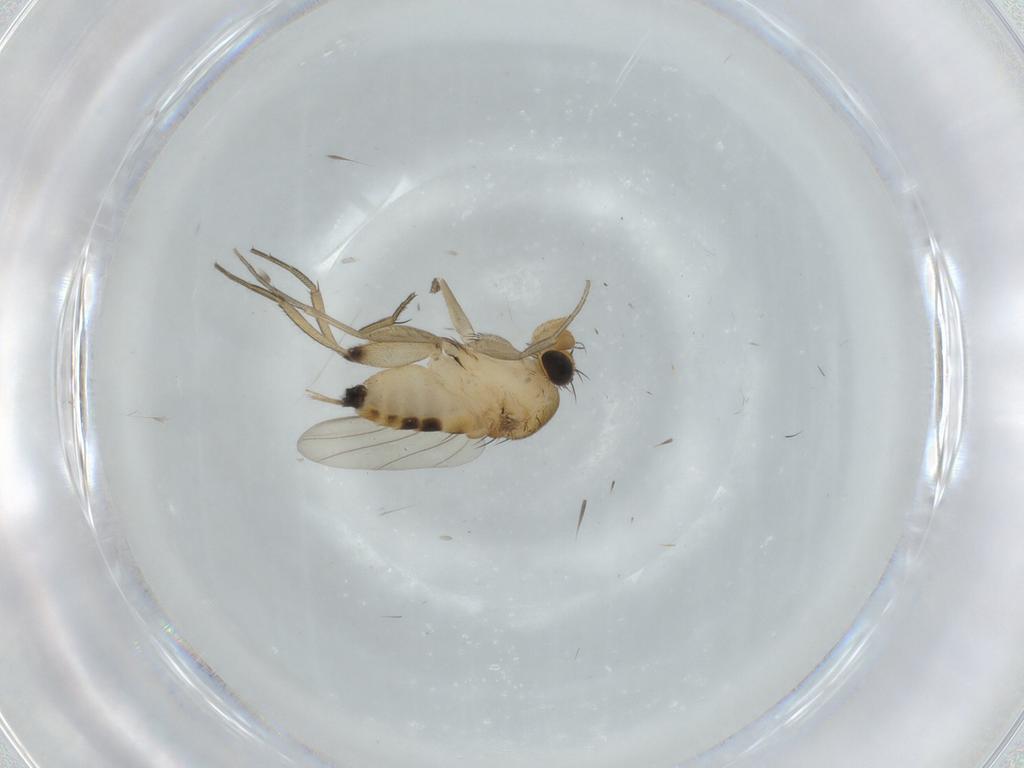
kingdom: Animalia
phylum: Arthropoda
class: Insecta
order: Diptera
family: Phoridae
